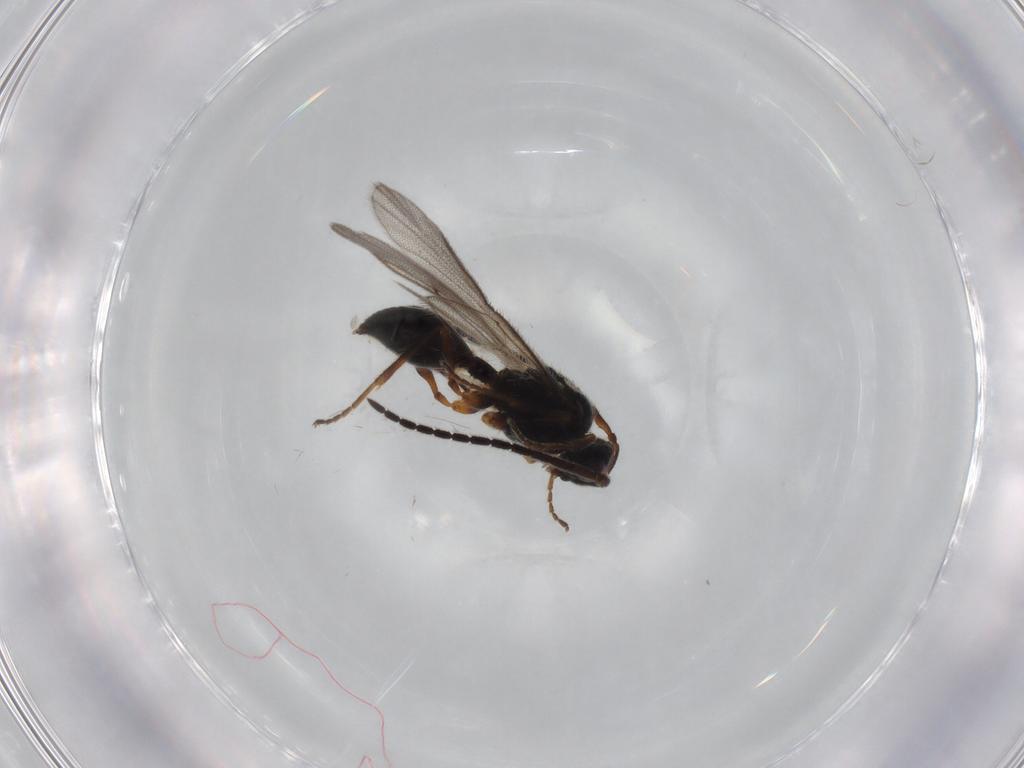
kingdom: Animalia
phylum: Arthropoda
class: Insecta
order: Hymenoptera
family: Diapriidae
